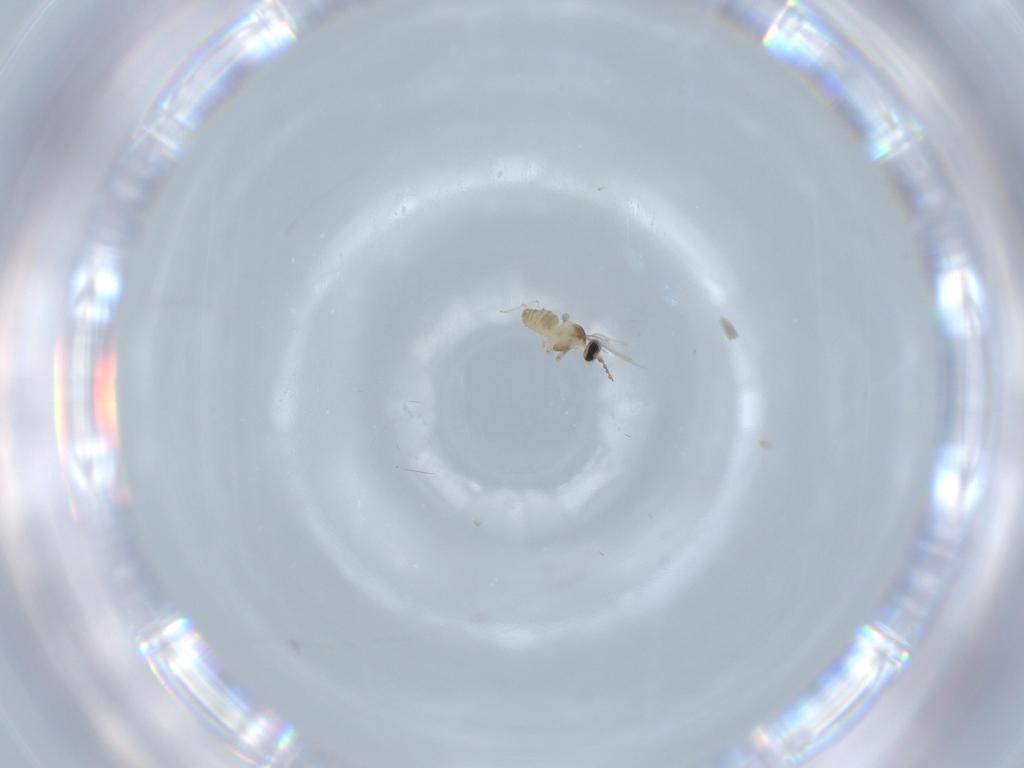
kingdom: Animalia
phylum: Arthropoda
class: Insecta
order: Diptera
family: Cecidomyiidae
